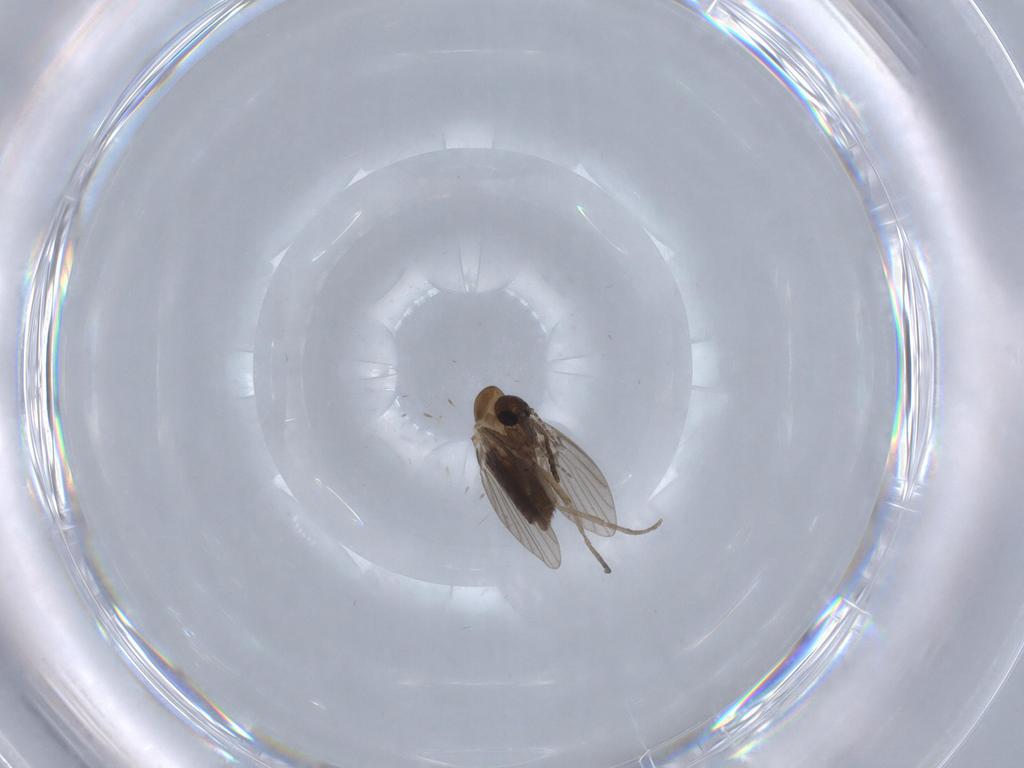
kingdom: Animalia
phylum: Arthropoda
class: Insecta
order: Diptera
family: Psychodidae
